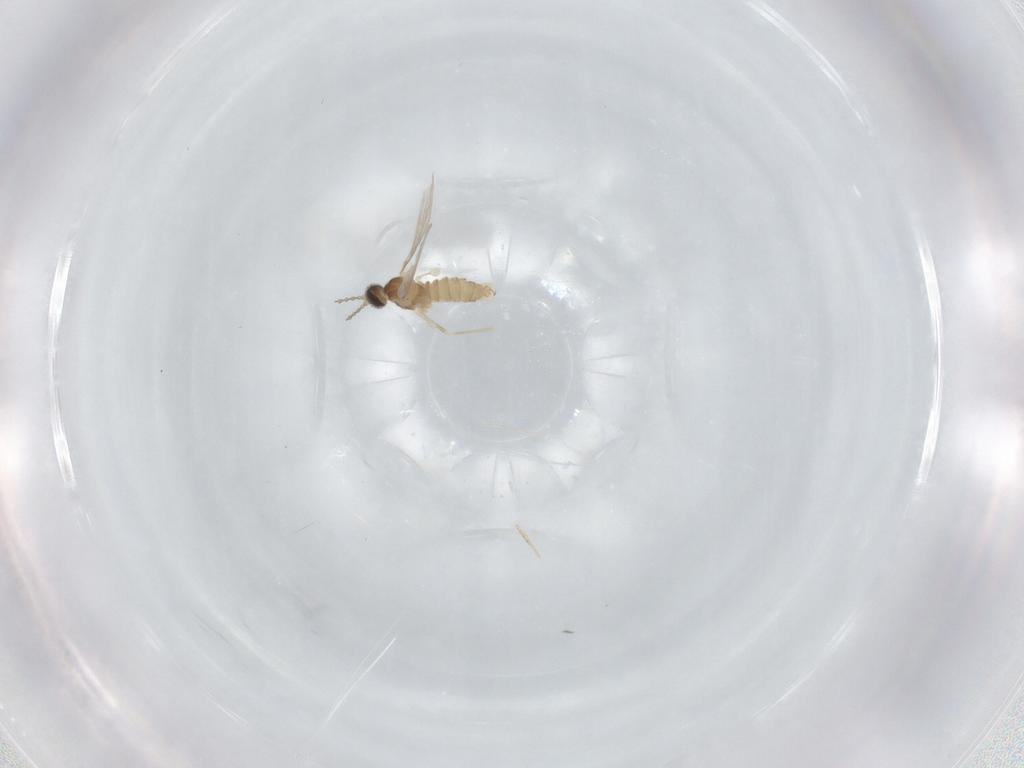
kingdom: Animalia
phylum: Arthropoda
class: Insecta
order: Diptera
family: Cecidomyiidae
